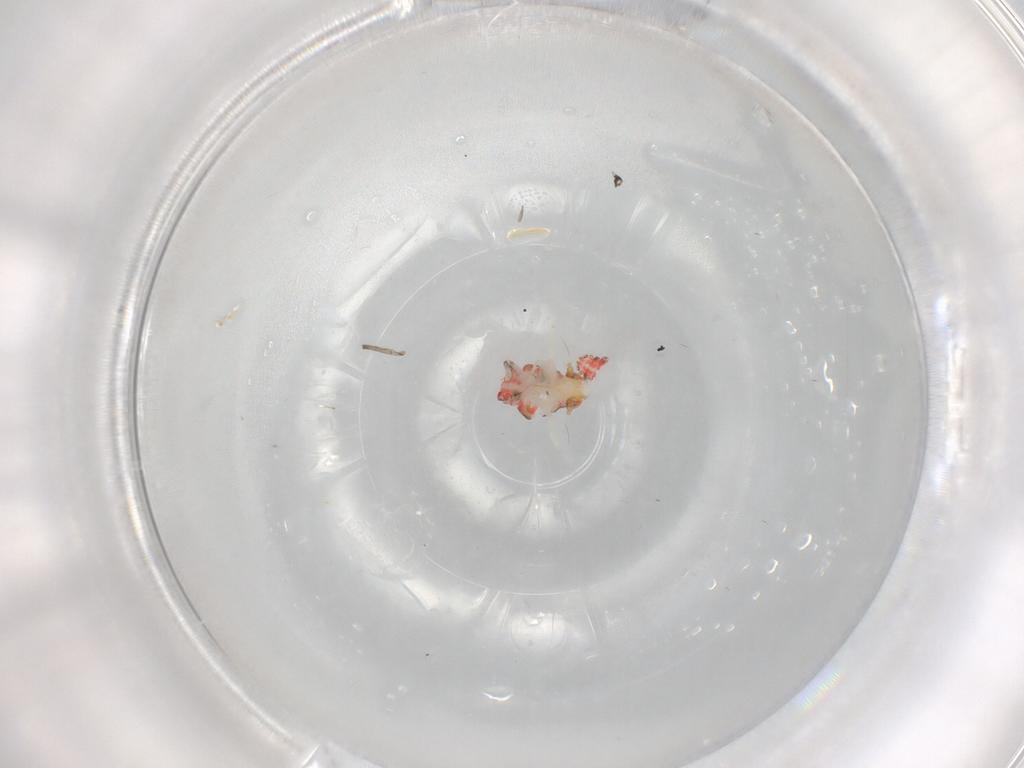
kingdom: Animalia
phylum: Arthropoda
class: Insecta
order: Hemiptera
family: Nogodinidae
